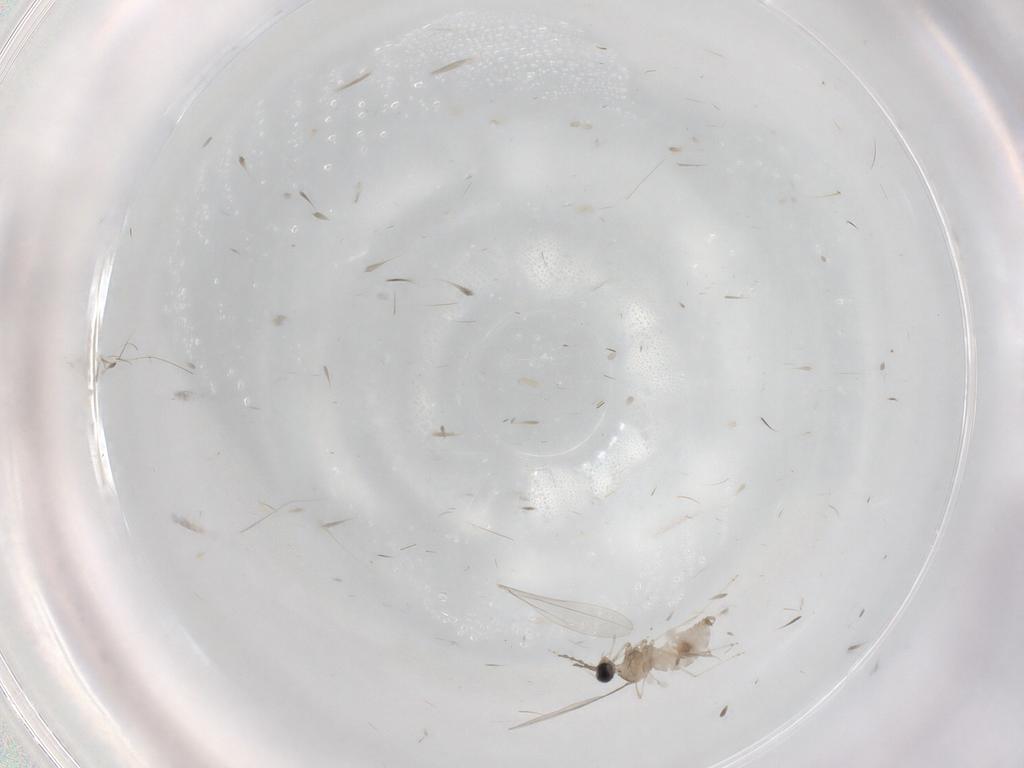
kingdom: Animalia
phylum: Arthropoda
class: Insecta
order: Diptera
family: Cecidomyiidae
